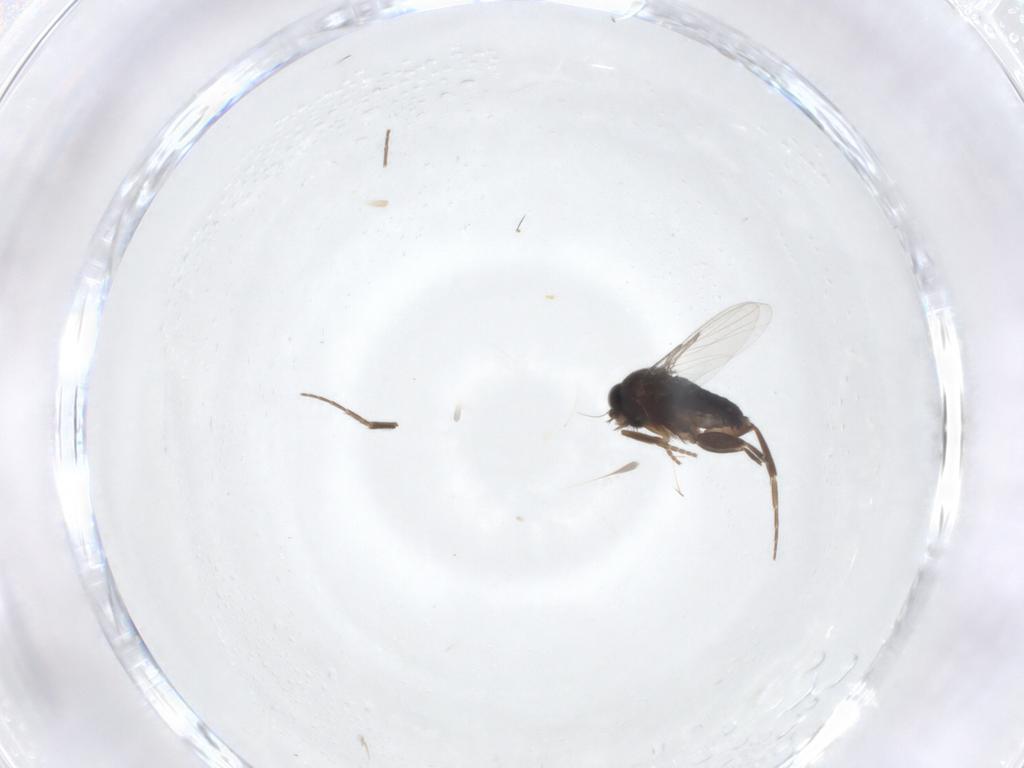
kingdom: Animalia
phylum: Arthropoda
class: Insecta
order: Diptera
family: Phoridae
